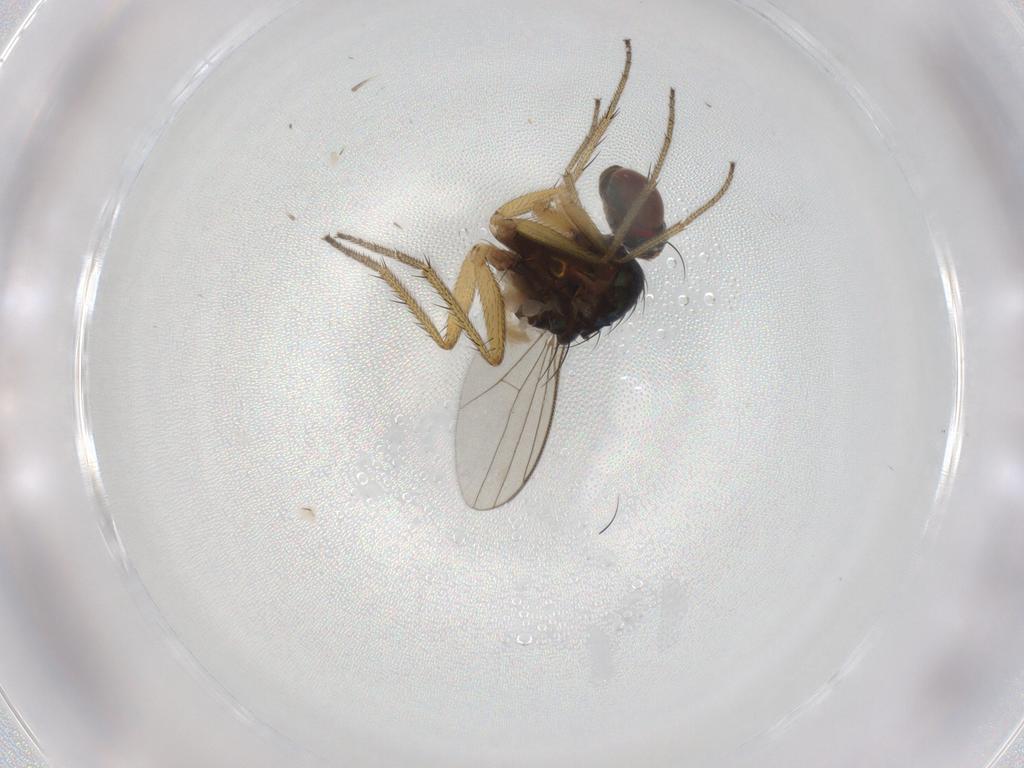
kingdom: Animalia
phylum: Arthropoda
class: Insecta
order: Diptera
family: Dolichopodidae
